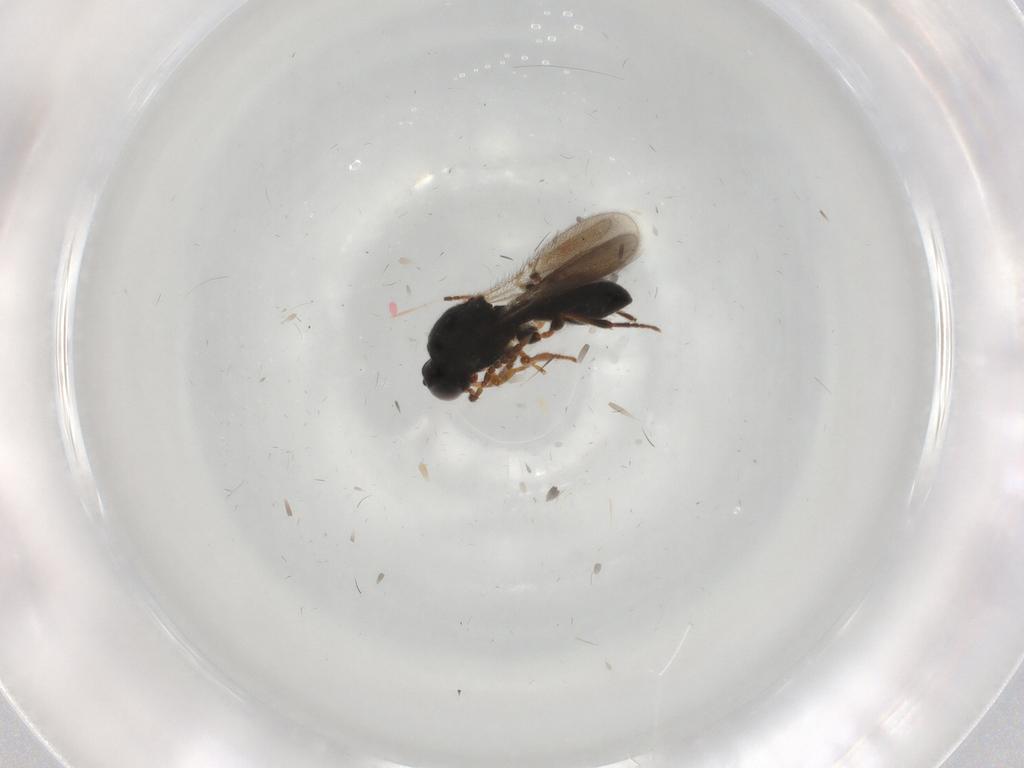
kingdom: Animalia
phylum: Arthropoda
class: Insecta
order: Hymenoptera
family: Platygastridae
